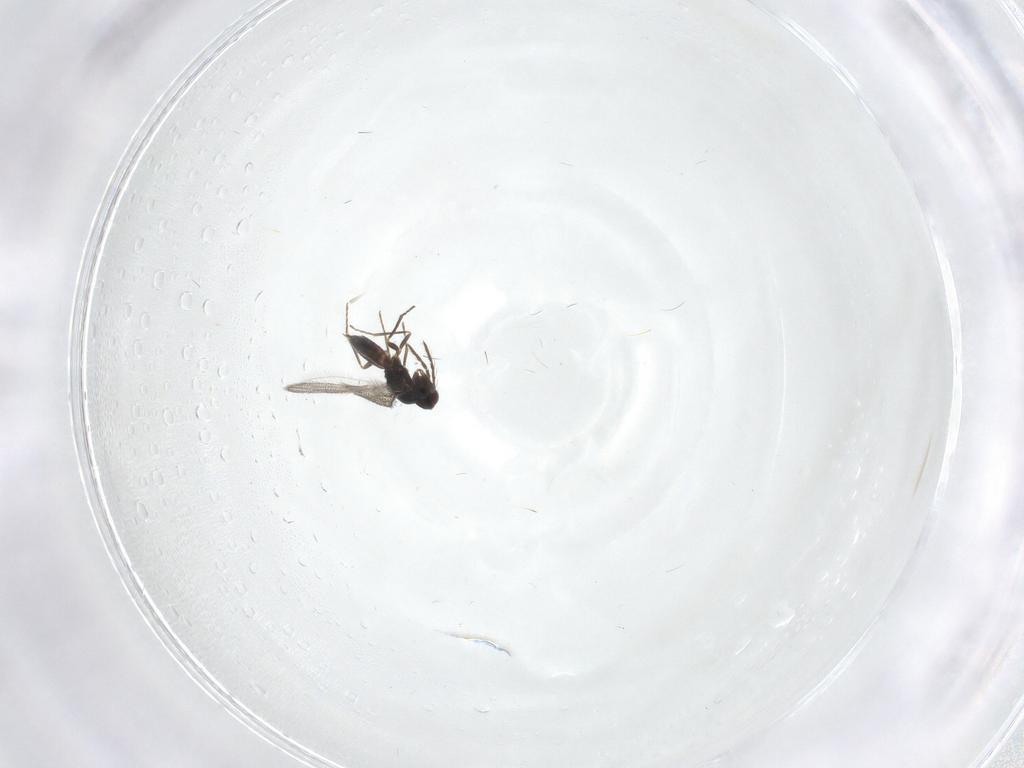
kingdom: Animalia
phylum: Arthropoda
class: Insecta
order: Hymenoptera
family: Eulophidae
